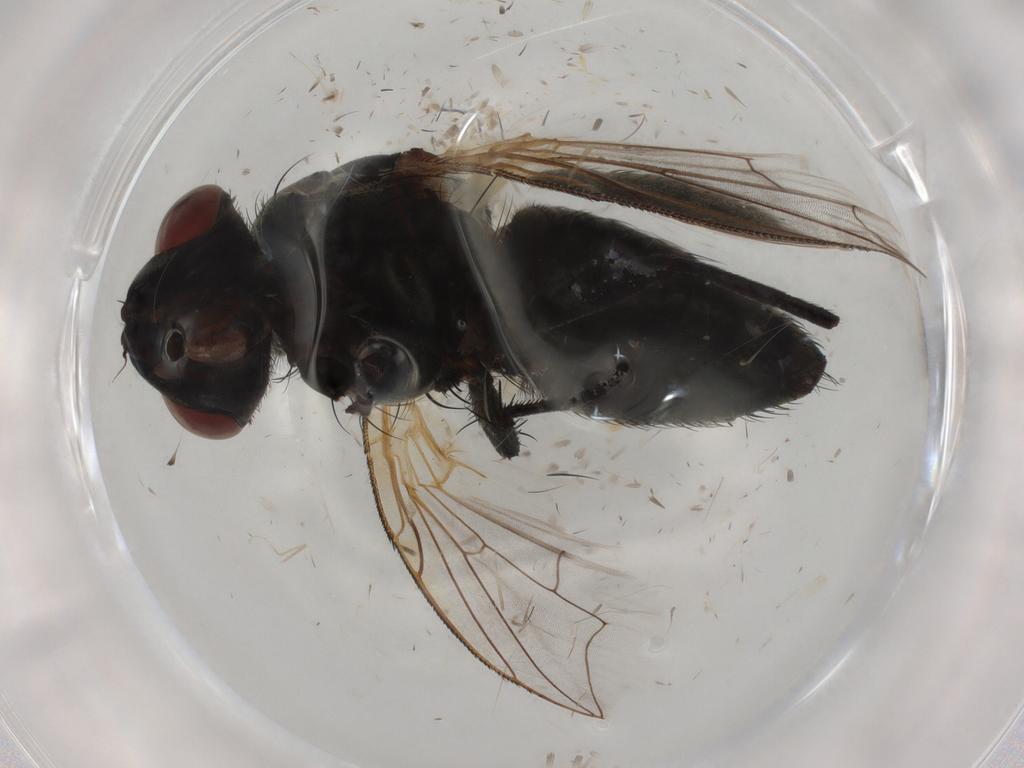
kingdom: Animalia
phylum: Arthropoda
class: Insecta
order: Diptera
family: Sarcophagidae
